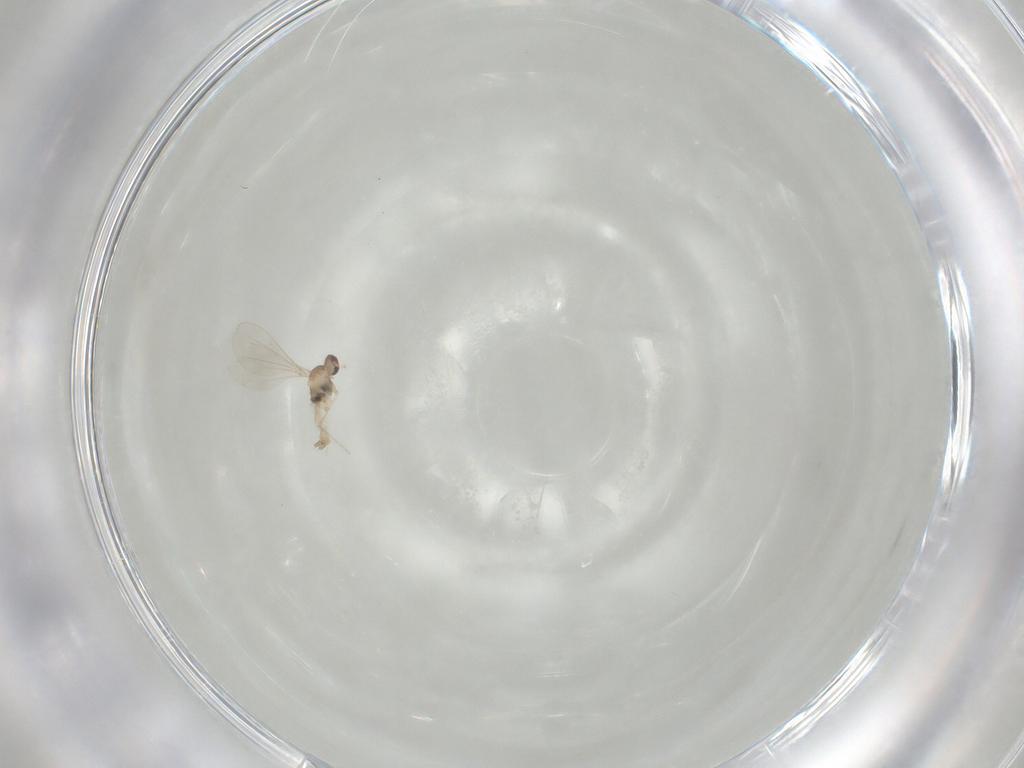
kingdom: Animalia
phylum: Arthropoda
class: Insecta
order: Diptera
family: Cecidomyiidae
